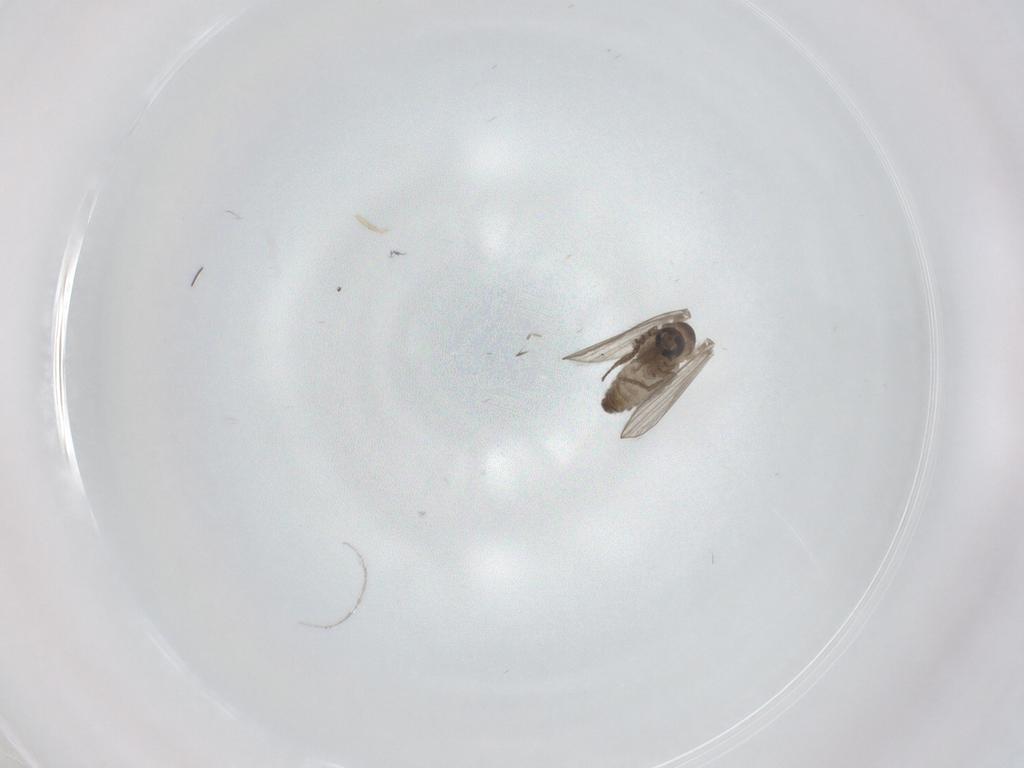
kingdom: Animalia
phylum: Arthropoda
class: Insecta
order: Diptera
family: Psychodidae
